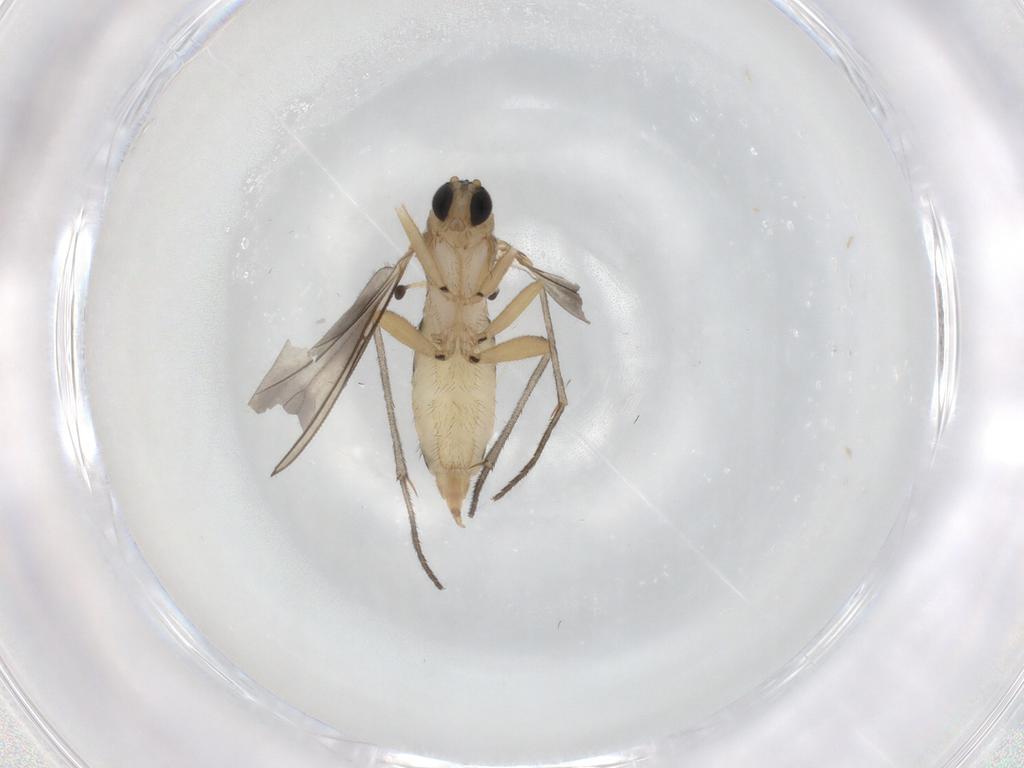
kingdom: Animalia
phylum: Arthropoda
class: Insecta
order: Diptera
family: Sciaridae
